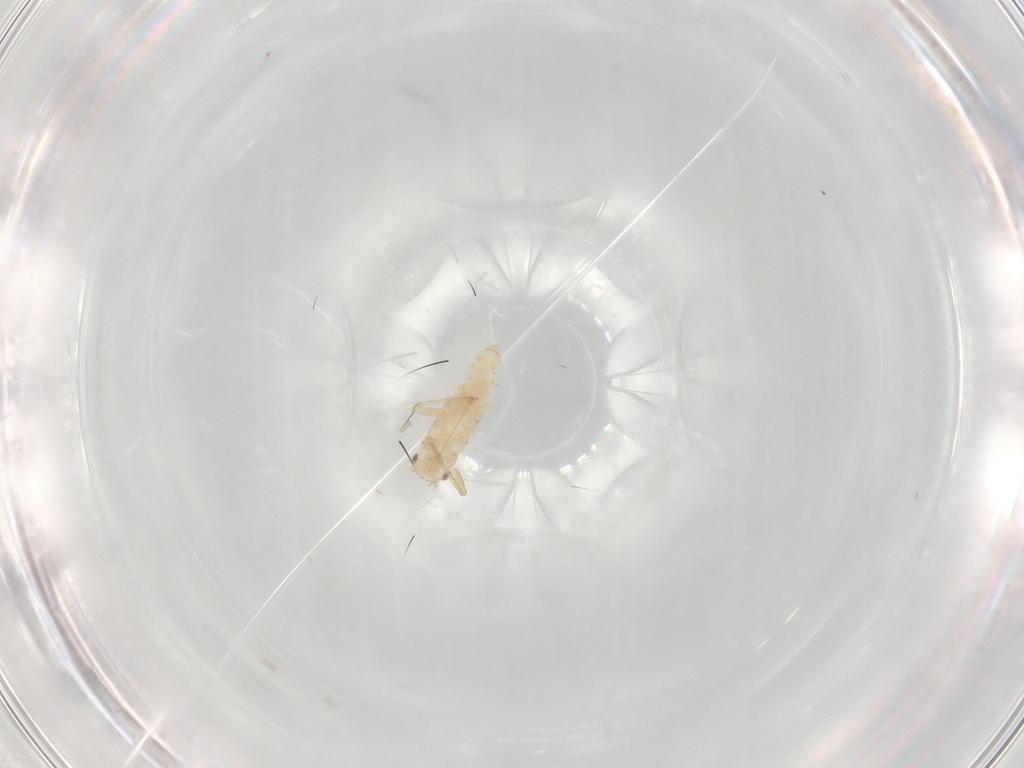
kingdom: Animalia
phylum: Arthropoda
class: Insecta
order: Hemiptera
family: Aphididae
